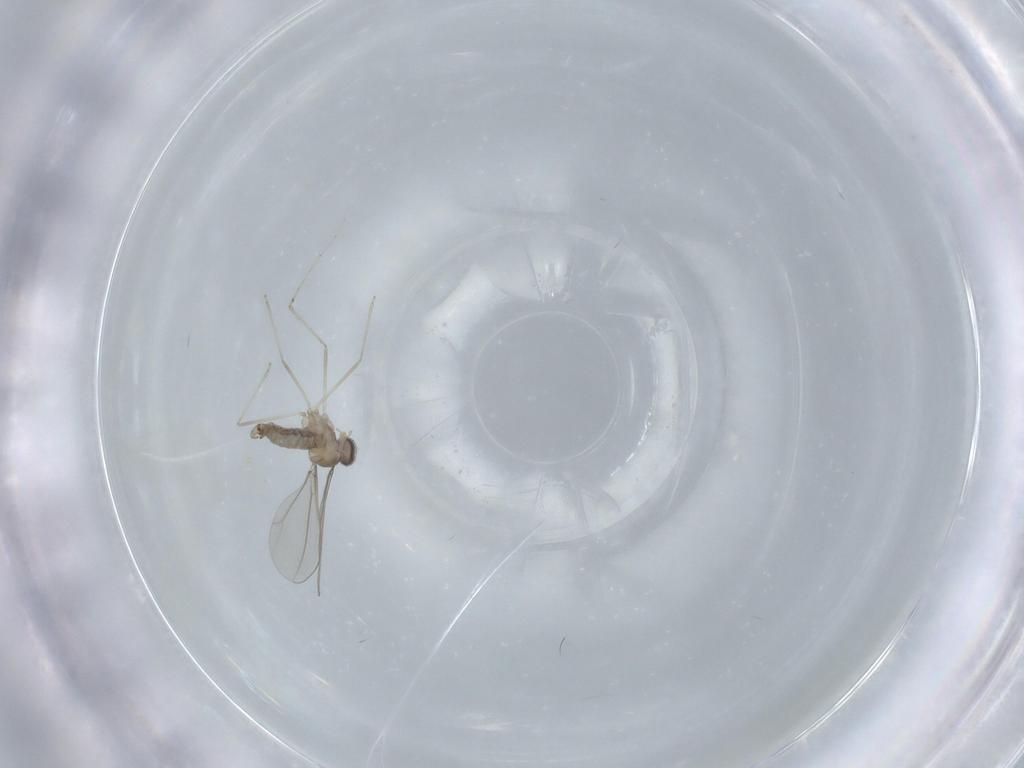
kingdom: Animalia
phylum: Arthropoda
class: Insecta
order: Diptera
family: Cecidomyiidae
